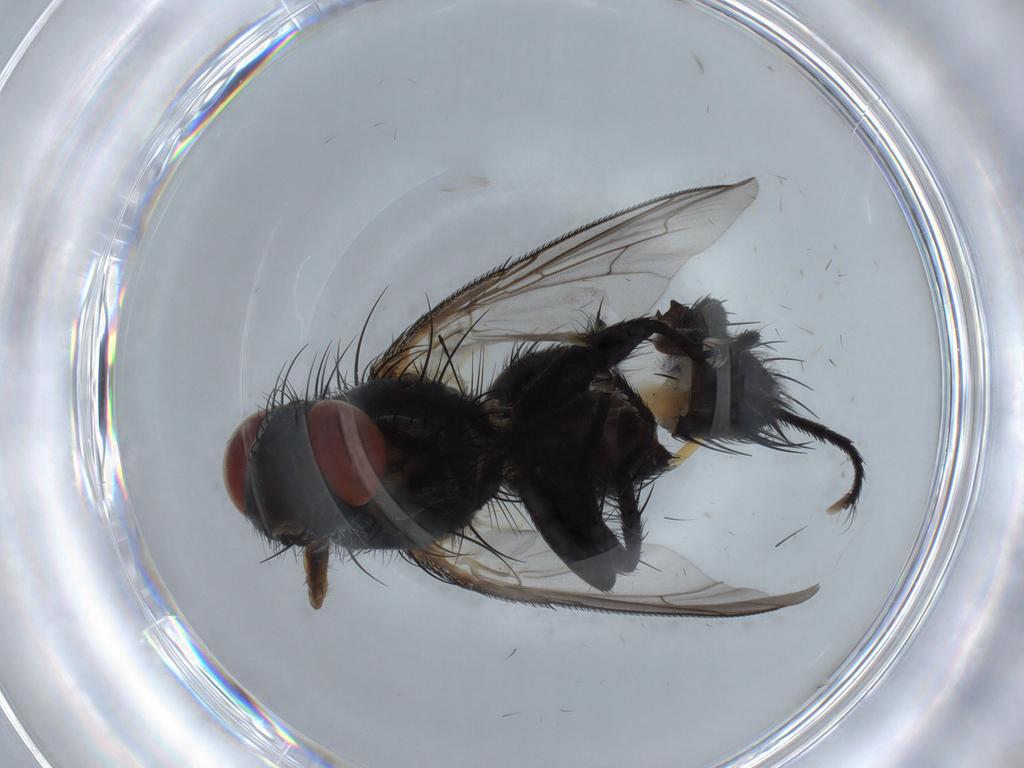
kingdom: Animalia
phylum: Arthropoda
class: Insecta
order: Diptera
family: Sarcophagidae
